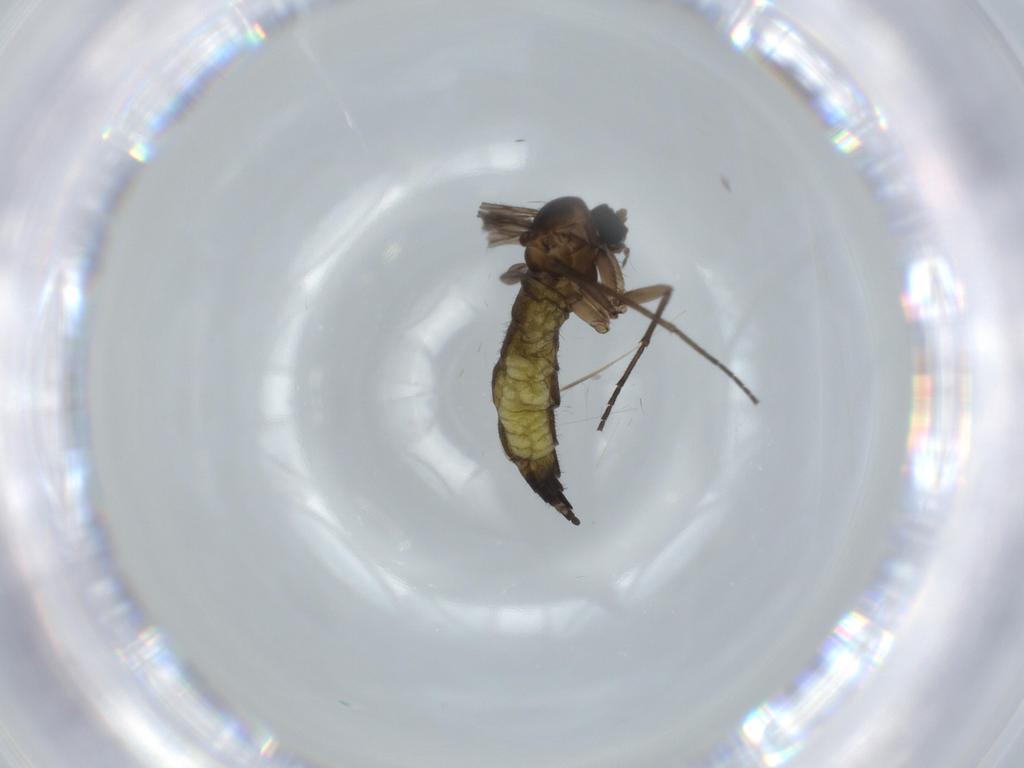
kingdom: Animalia
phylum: Arthropoda
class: Insecta
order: Diptera
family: Sciaridae
